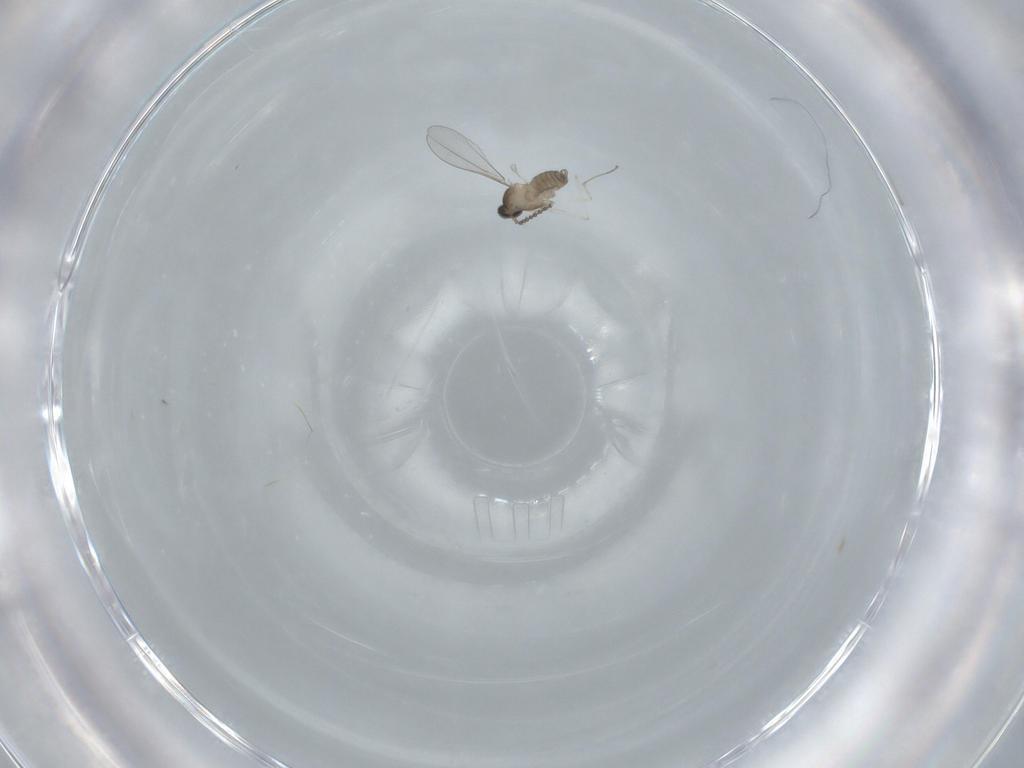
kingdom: Animalia
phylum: Arthropoda
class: Insecta
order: Diptera
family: Cecidomyiidae
